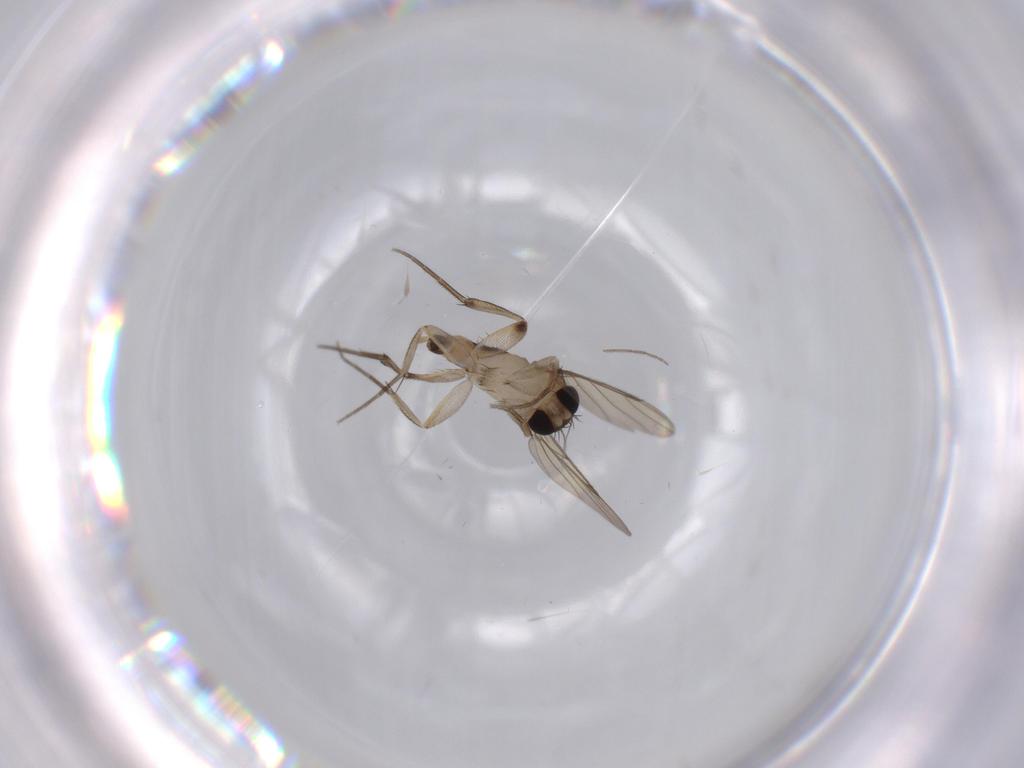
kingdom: Animalia
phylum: Arthropoda
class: Insecta
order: Diptera
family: Phoridae
